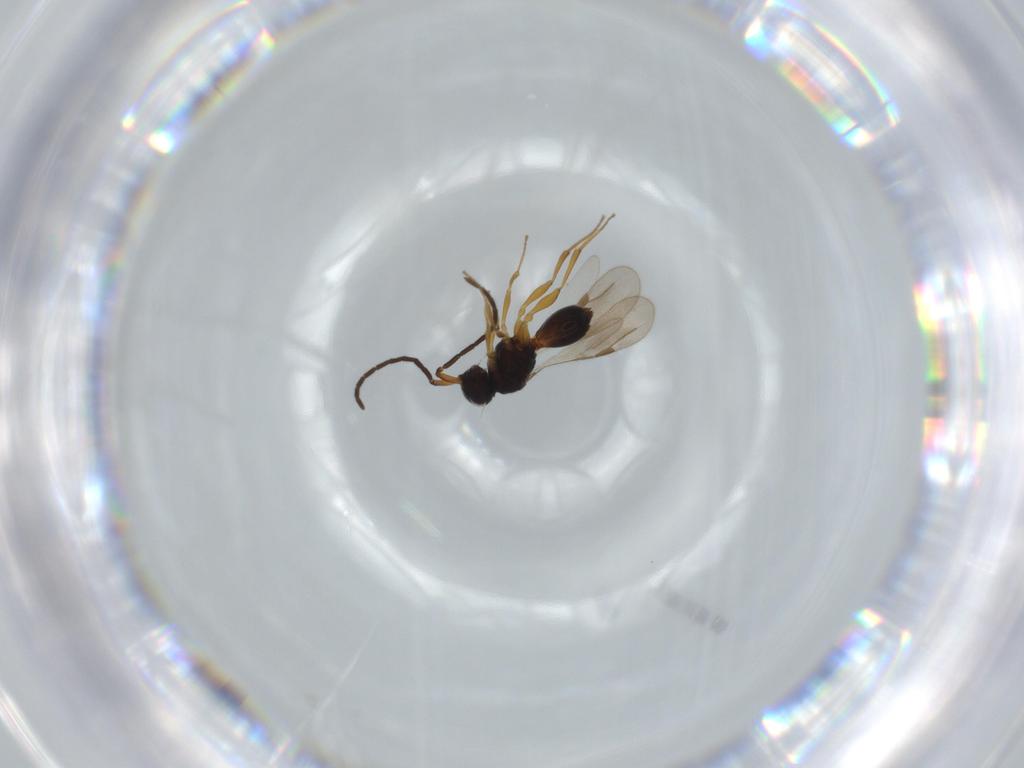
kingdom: Animalia
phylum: Arthropoda
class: Insecta
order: Hymenoptera
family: Megaspilidae
